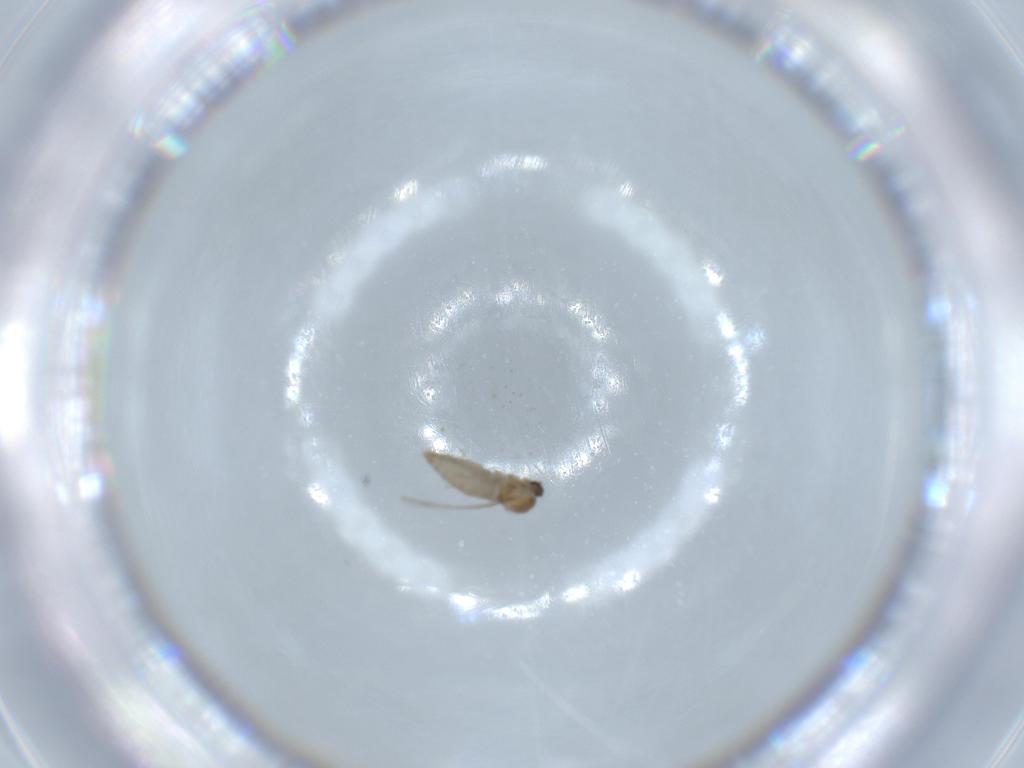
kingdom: Animalia
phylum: Arthropoda
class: Insecta
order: Diptera
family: Cecidomyiidae
